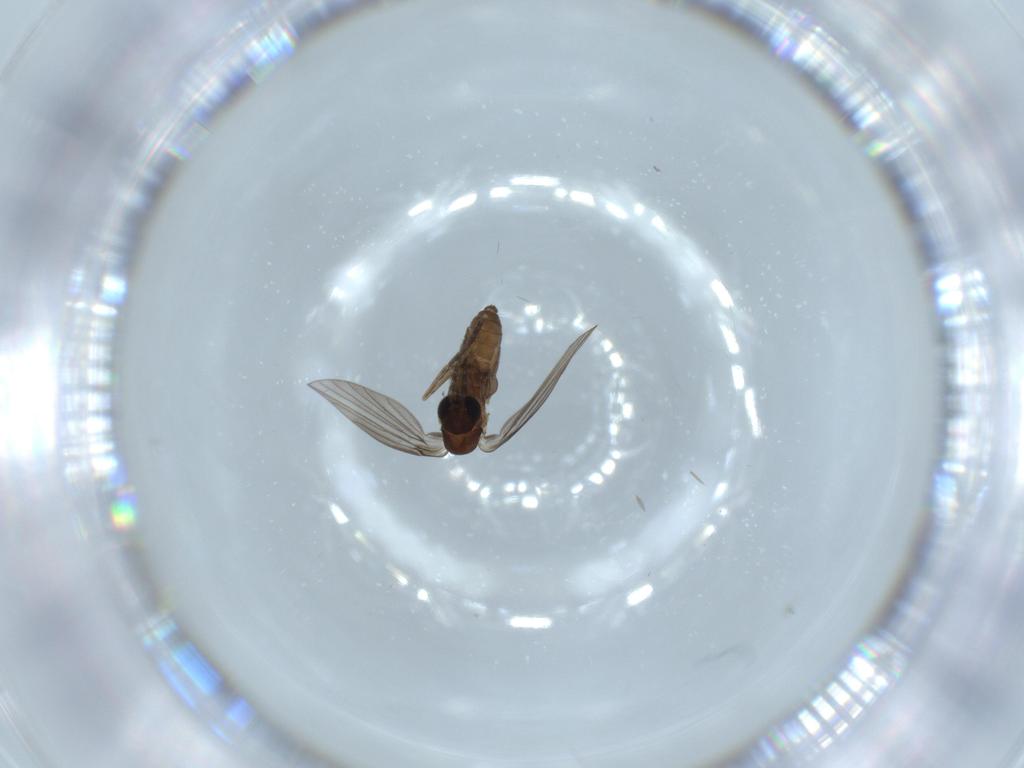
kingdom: Animalia
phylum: Arthropoda
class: Insecta
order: Diptera
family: Psychodidae
